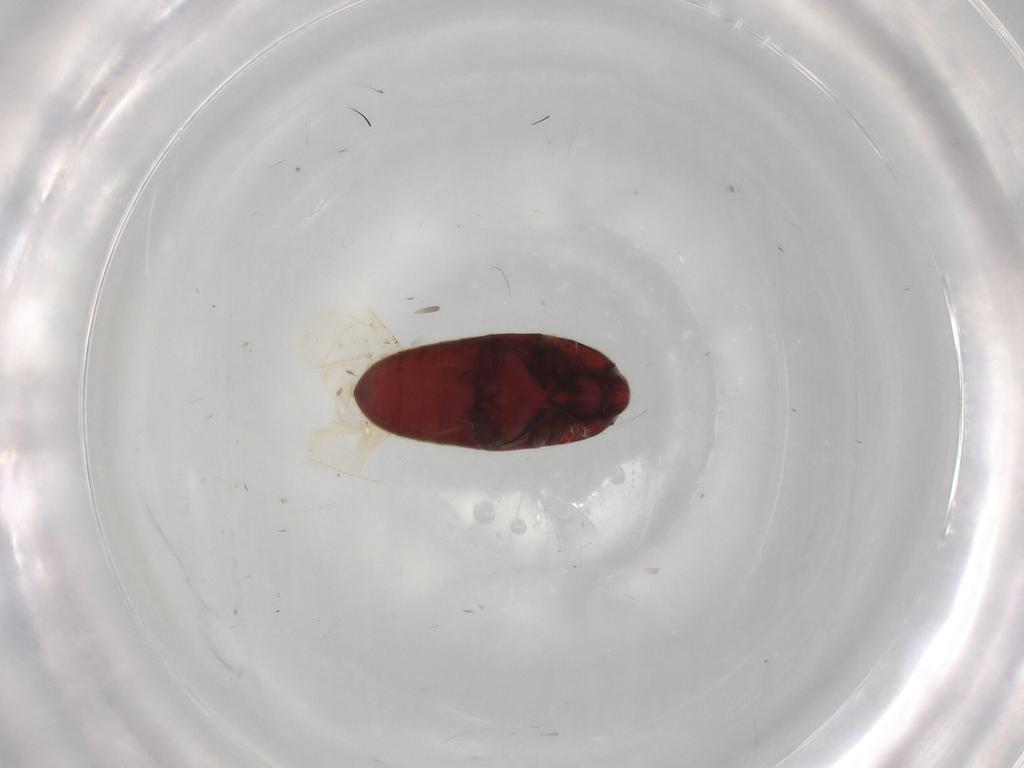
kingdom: Animalia
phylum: Arthropoda
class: Insecta
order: Coleoptera
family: Throscidae
